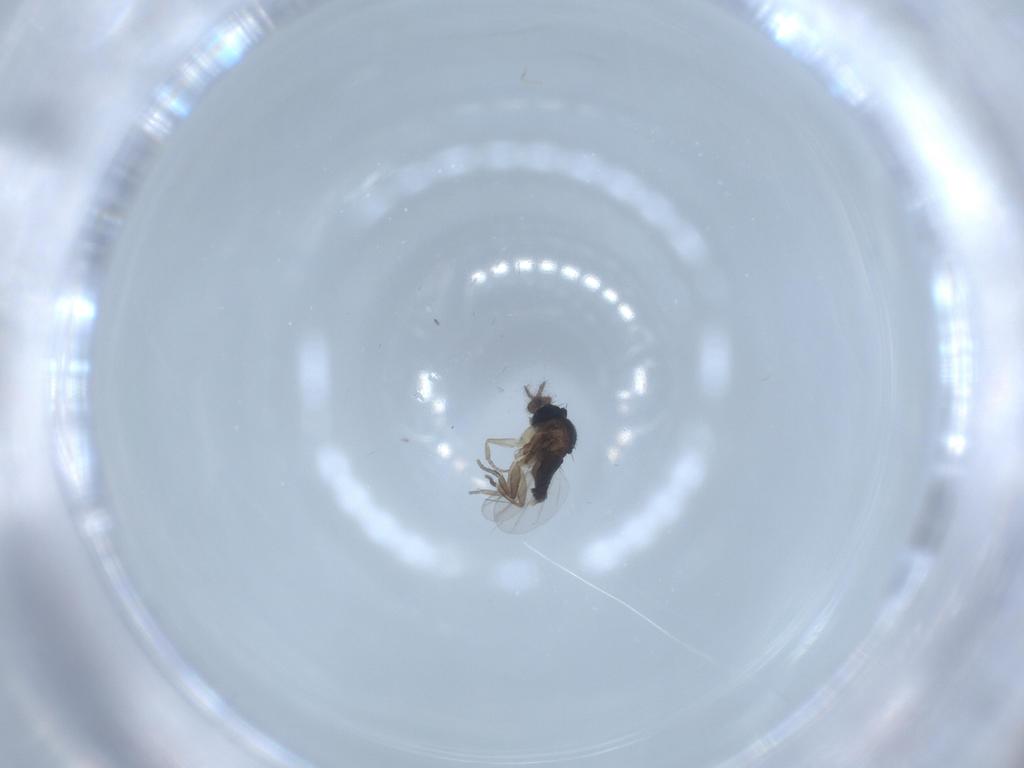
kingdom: Animalia
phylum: Arthropoda
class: Insecta
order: Diptera
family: Phoridae
